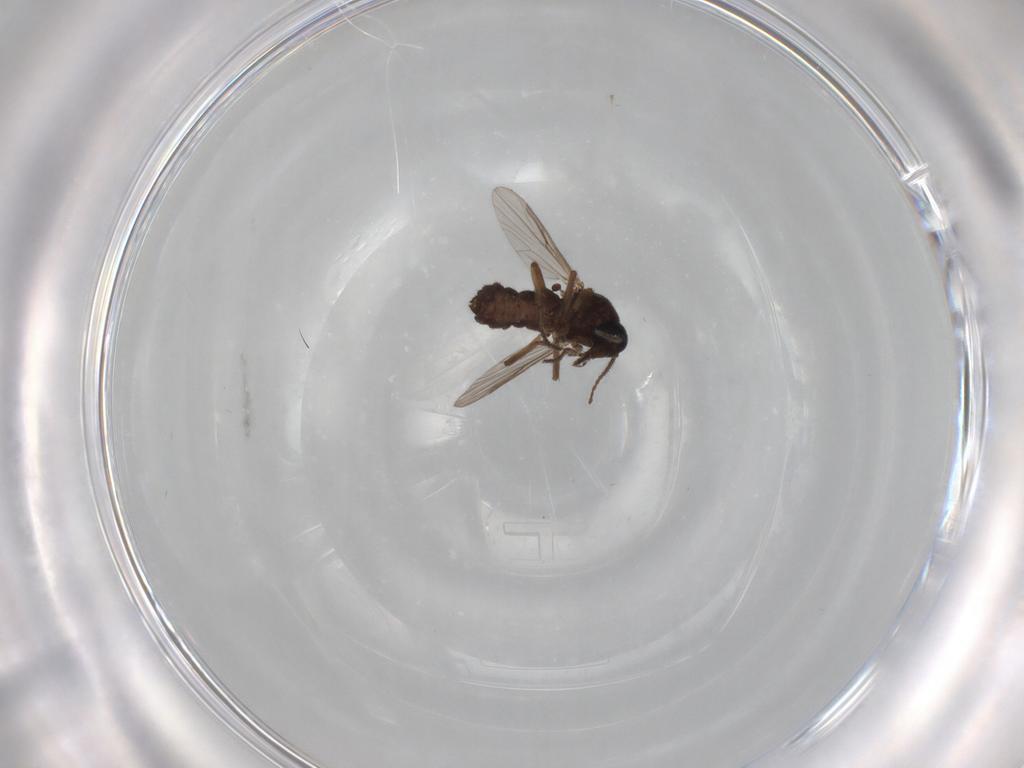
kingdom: Animalia
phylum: Arthropoda
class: Insecta
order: Diptera
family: Ceratopogonidae
